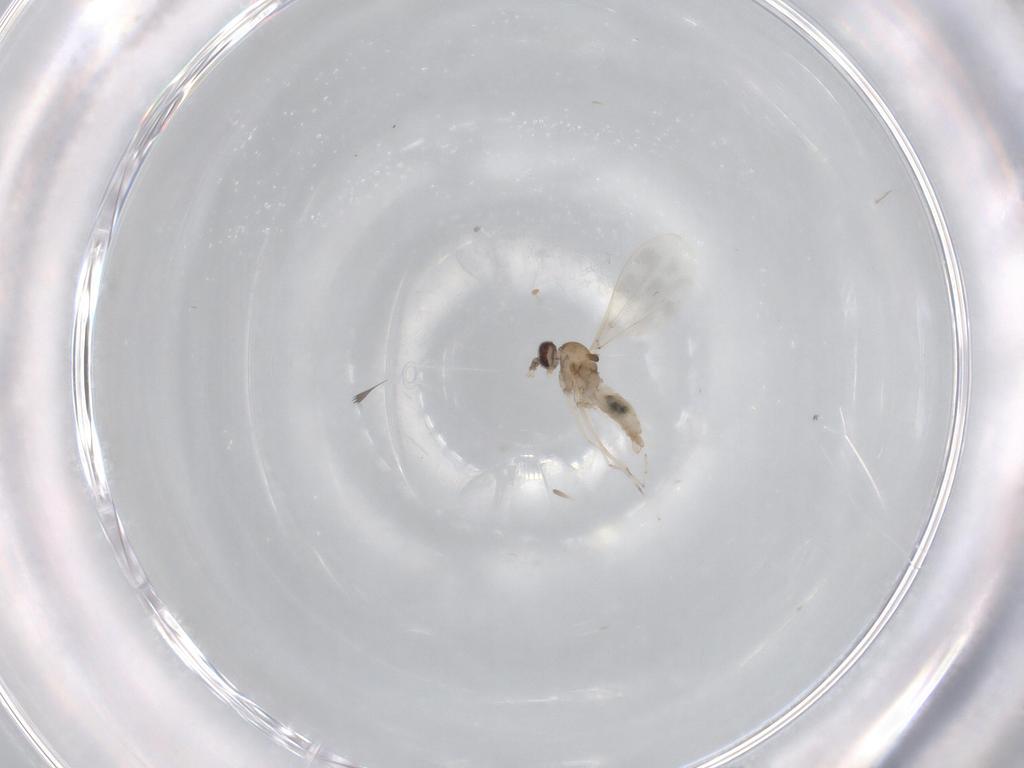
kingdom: Animalia
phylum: Arthropoda
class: Insecta
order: Diptera
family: Cecidomyiidae
